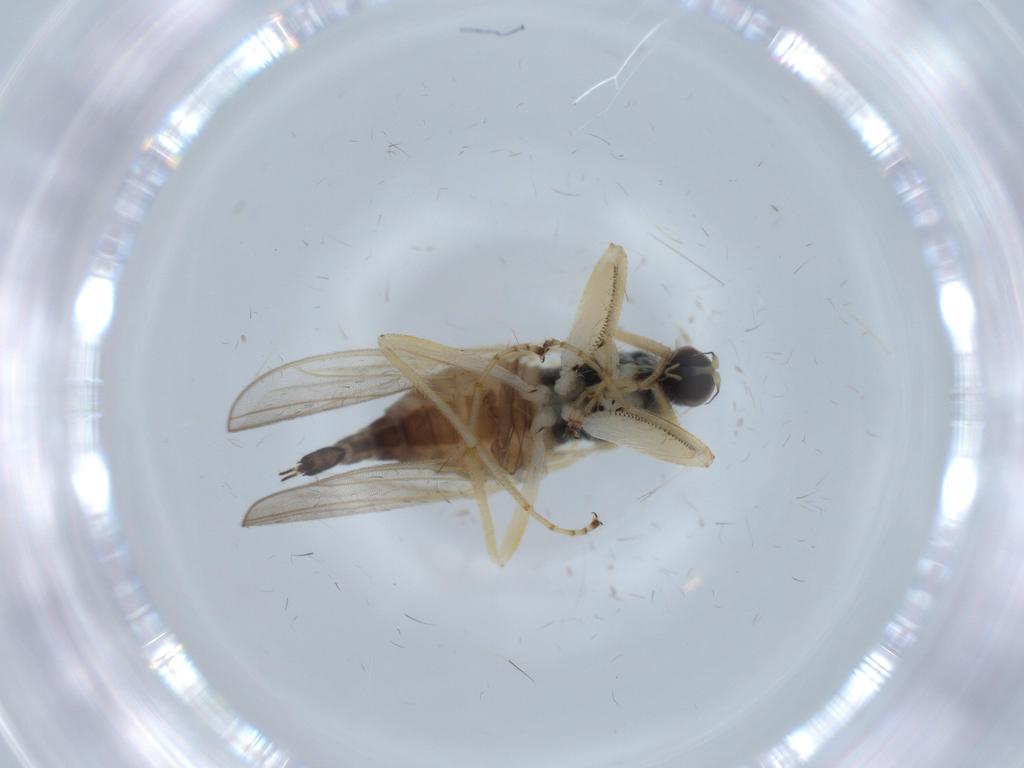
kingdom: Animalia
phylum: Arthropoda
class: Insecta
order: Diptera
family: Hybotidae
